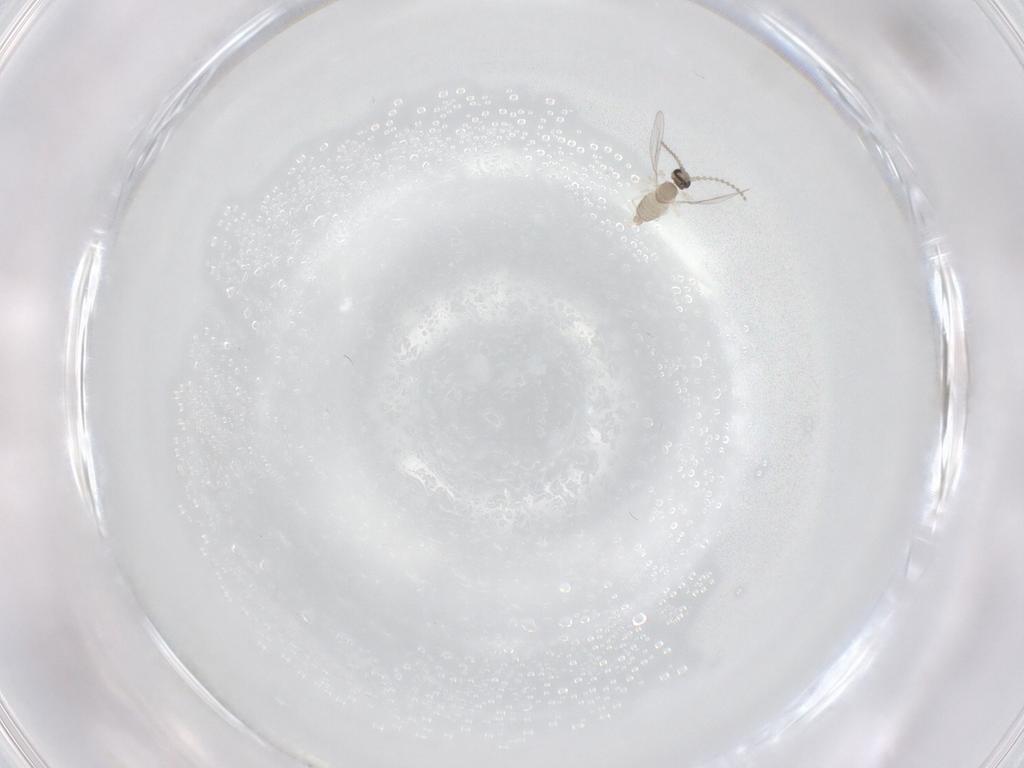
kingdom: Animalia
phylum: Arthropoda
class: Insecta
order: Diptera
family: Cecidomyiidae
